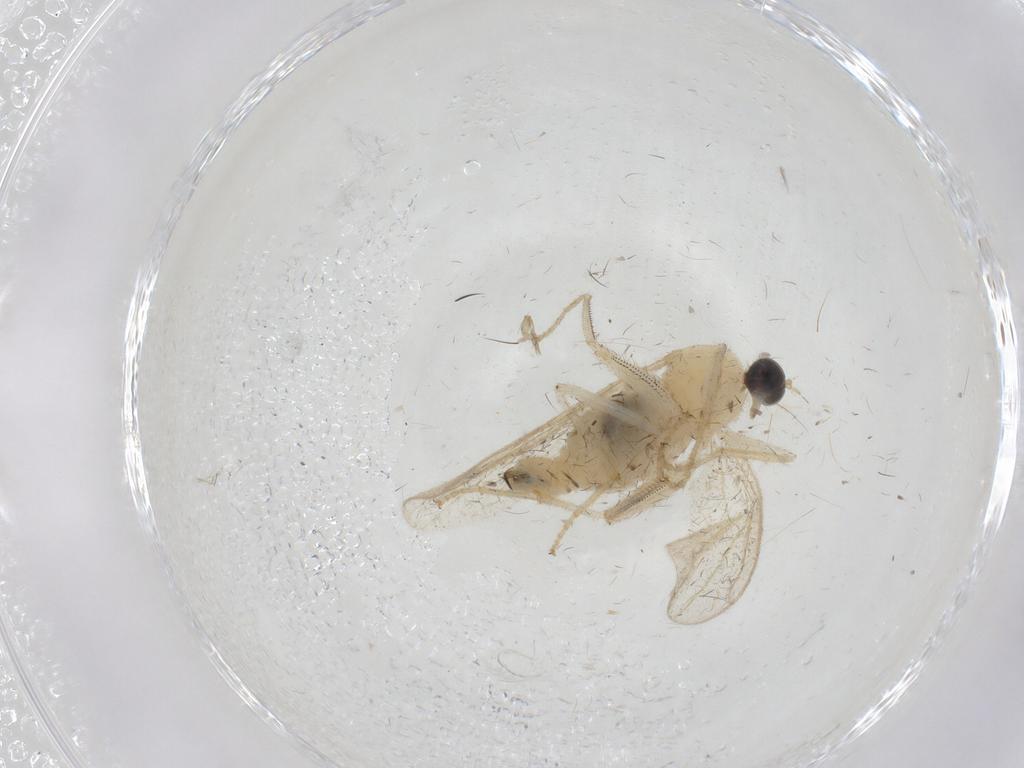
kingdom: Animalia
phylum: Arthropoda
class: Insecta
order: Diptera
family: Hybotidae
